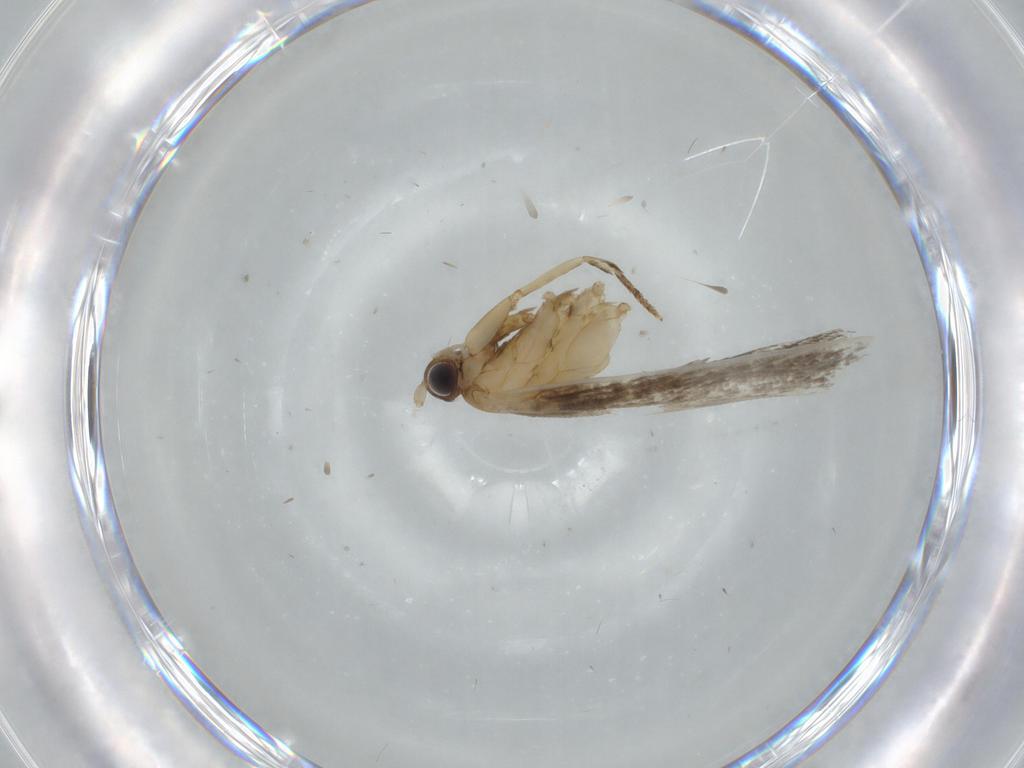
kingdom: Animalia
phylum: Arthropoda
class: Insecta
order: Lepidoptera
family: Tineidae
